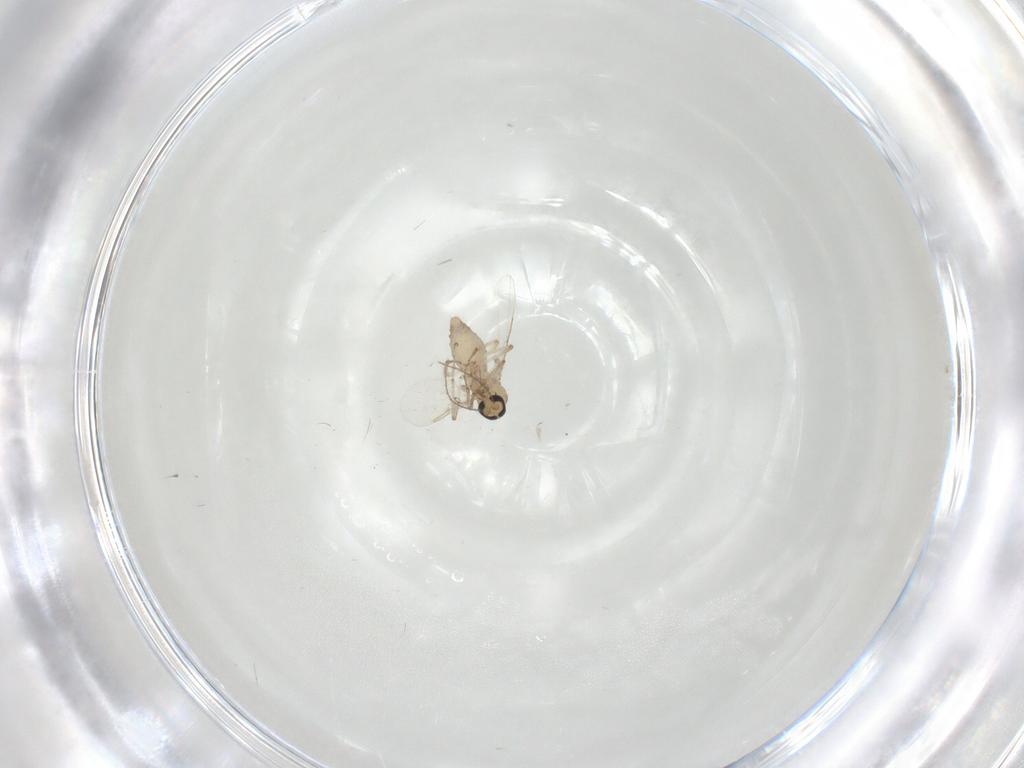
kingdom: Animalia
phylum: Arthropoda
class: Insecta
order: Diptera
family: Ceratopogonidae
